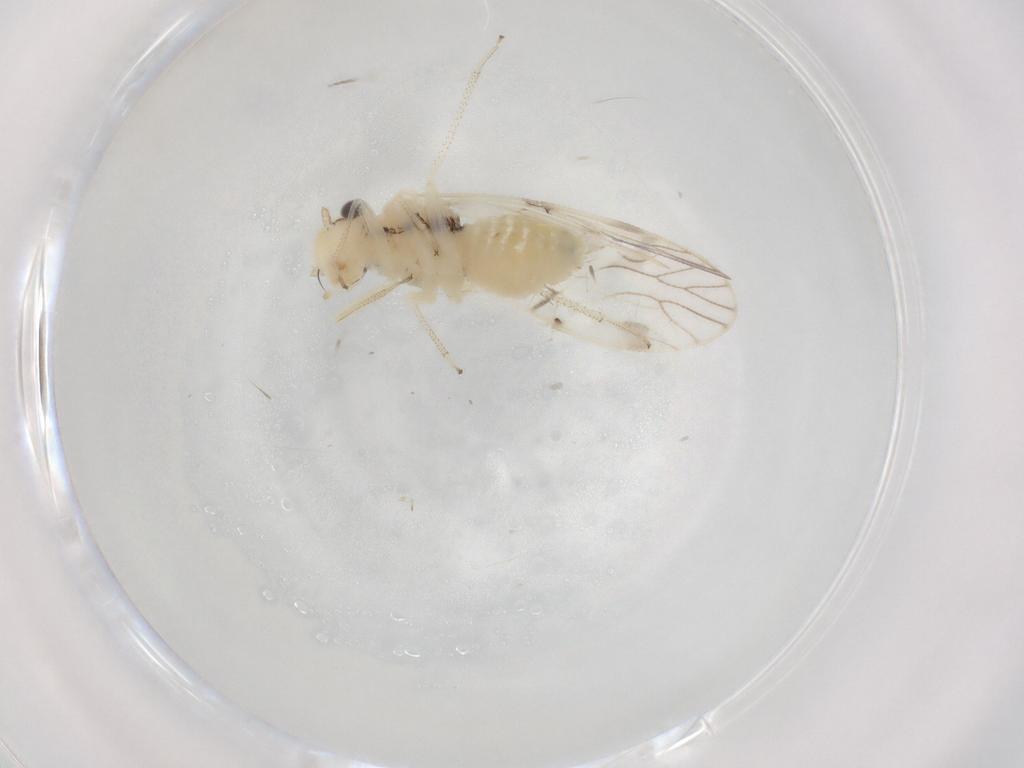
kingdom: Animalia
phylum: Arthropoda
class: Insecta
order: Psocodea
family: Caeciliusidae
